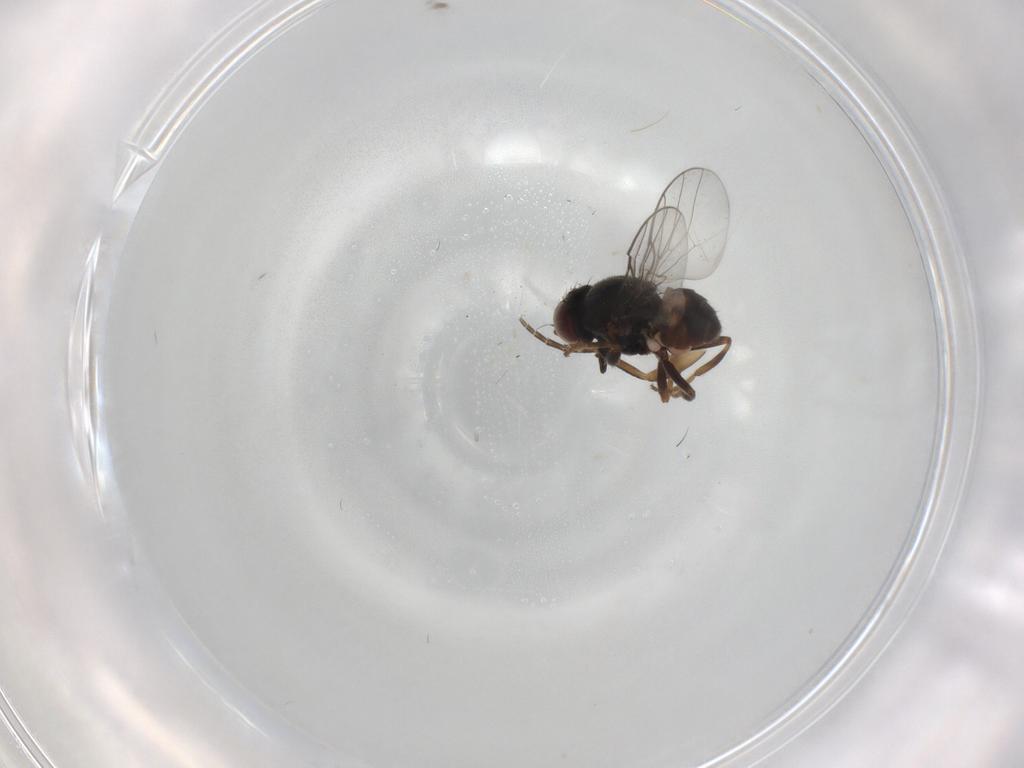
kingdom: Animalia
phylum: Arthropoda
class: Insecta
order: Diptera
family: Chloropidae
